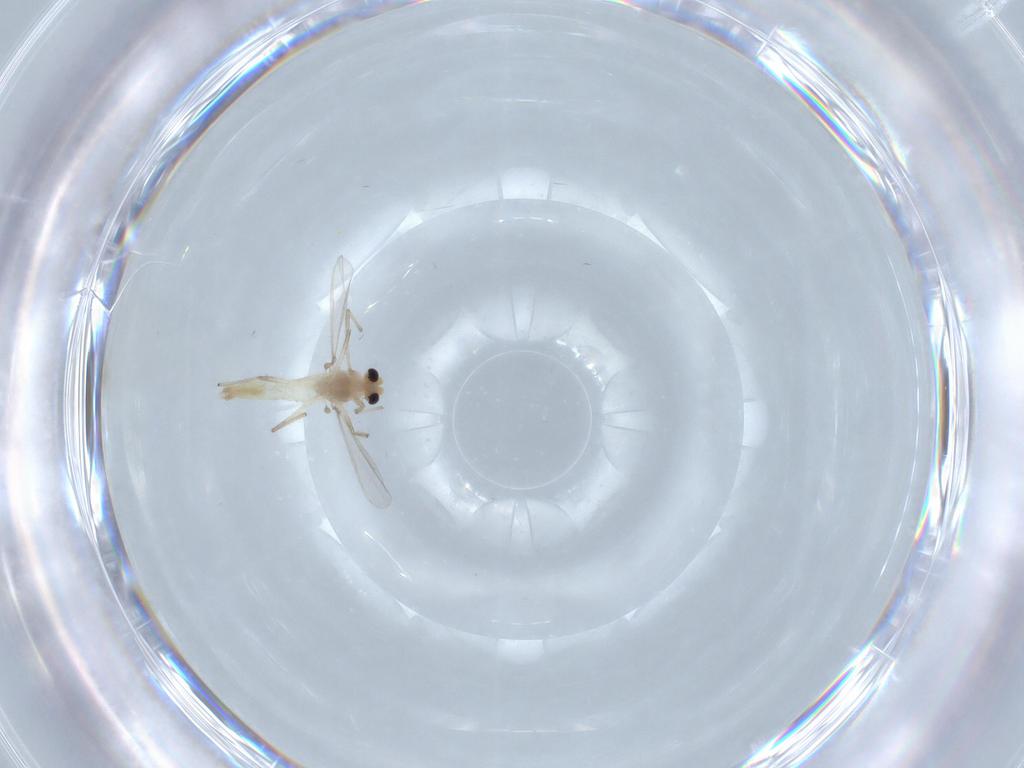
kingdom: Animalia
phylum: Arthropoda
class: Insecta
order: Diptera
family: Chironomidae
